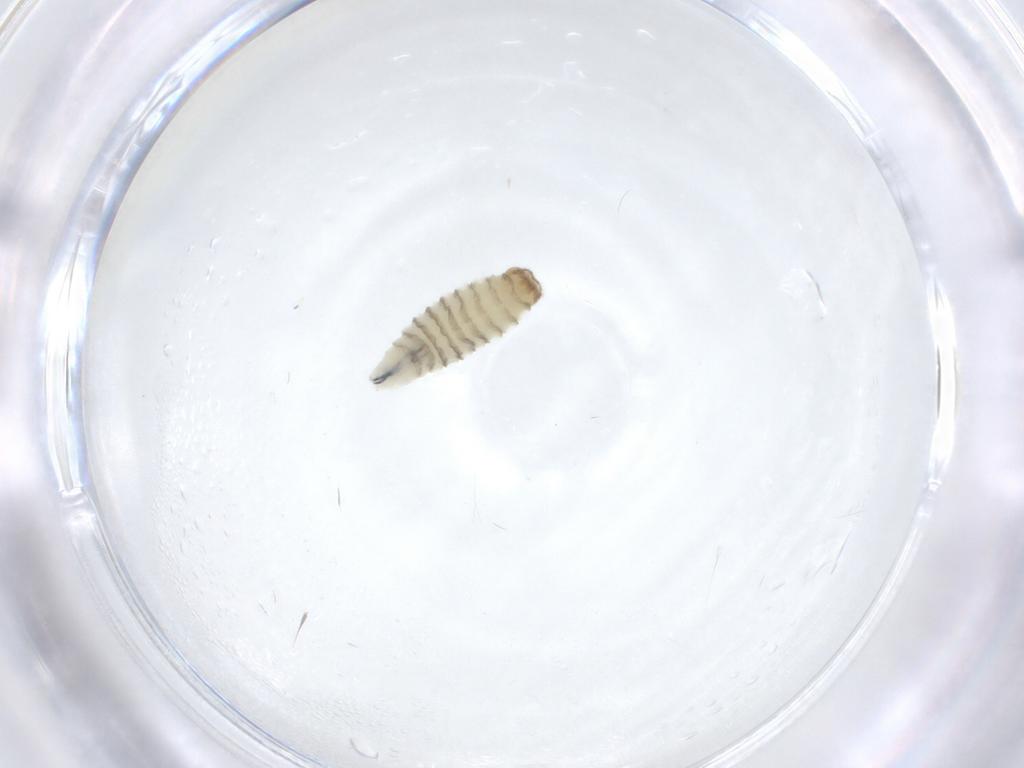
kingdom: Animalia
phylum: Arthropoda
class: Insecta
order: Diptera
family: Sarcophagidae
